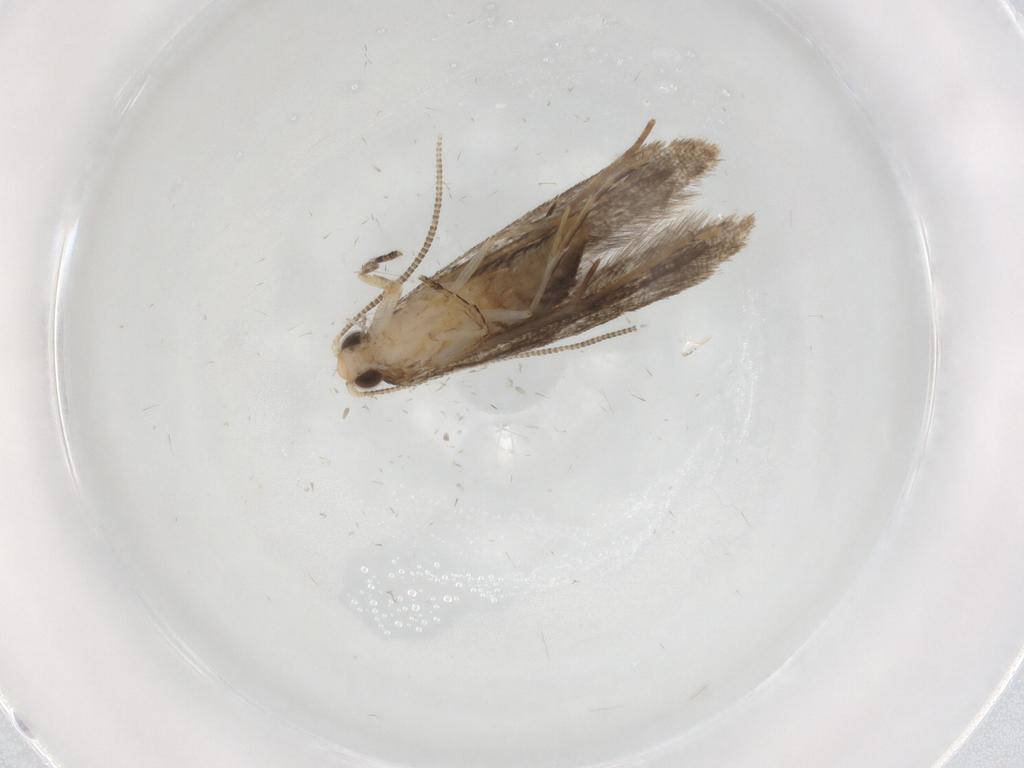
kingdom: Animalia
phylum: Arthropoda
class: Insecta
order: Lepidoptera
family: Tineidae
